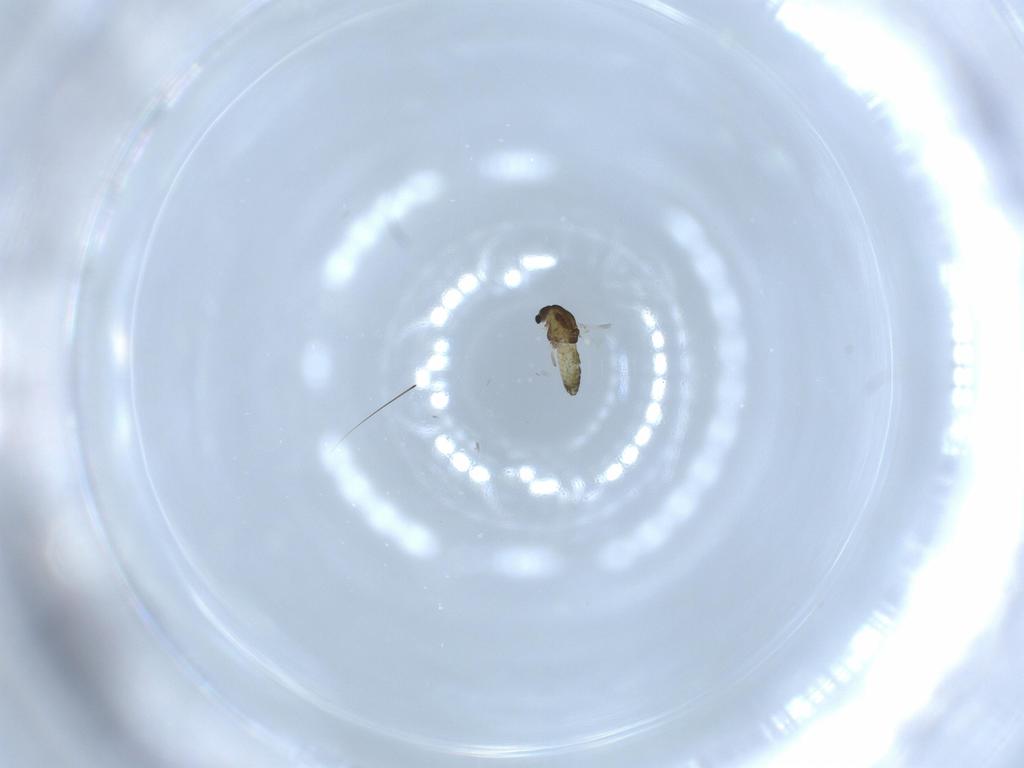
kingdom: Animalia
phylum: Arthropoda
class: Insecta
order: Diptera
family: Chironomidae
